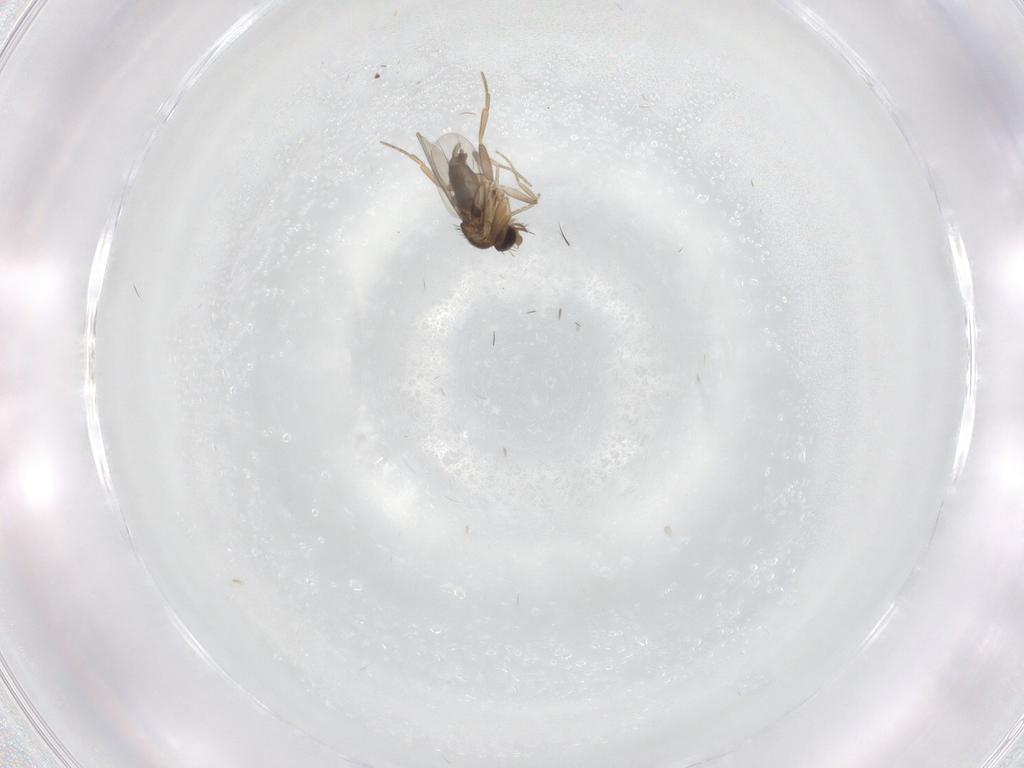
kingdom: Animalia
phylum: Arthropoda
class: Insecta
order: Diptera
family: Phoridae
